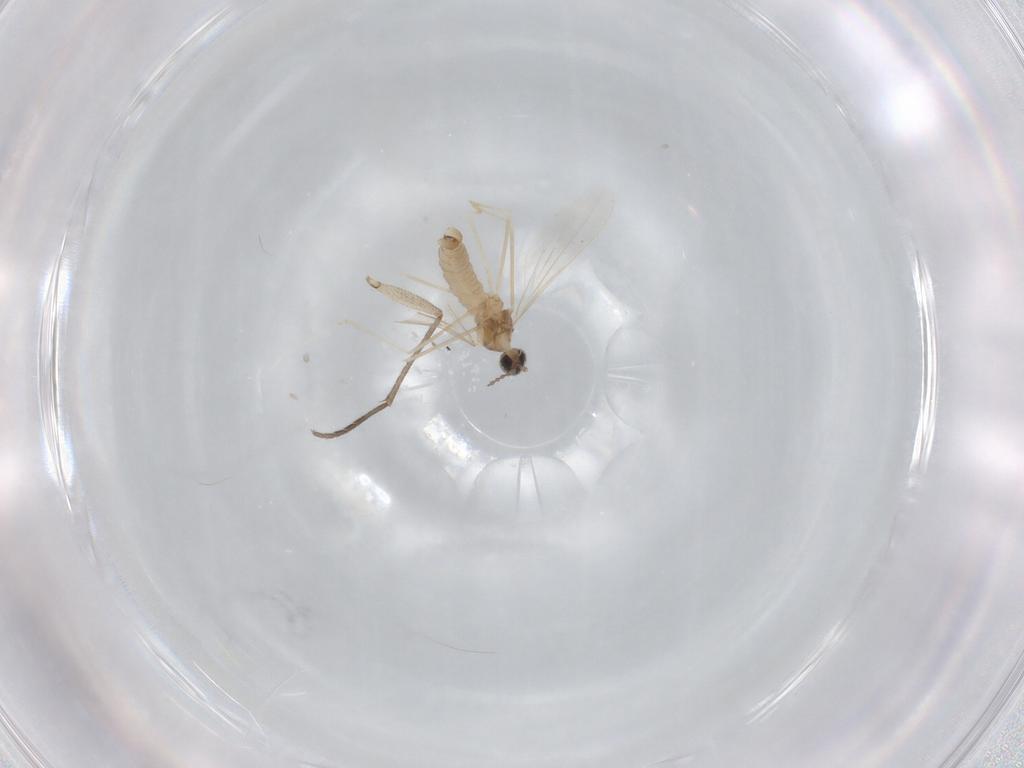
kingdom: Animalia
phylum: Arthropoda
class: Insecta
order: Diptera
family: Cecidomyiidae
